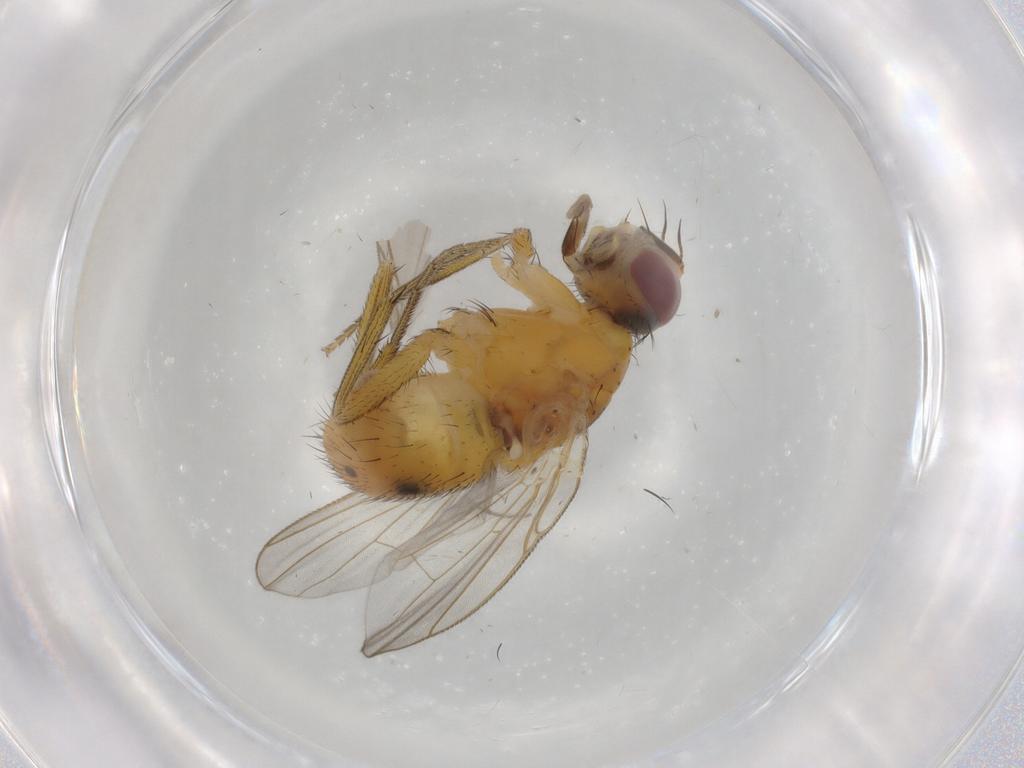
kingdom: Animalia
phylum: Arthropoda
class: Insecta
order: Diptera
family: Muscidae
